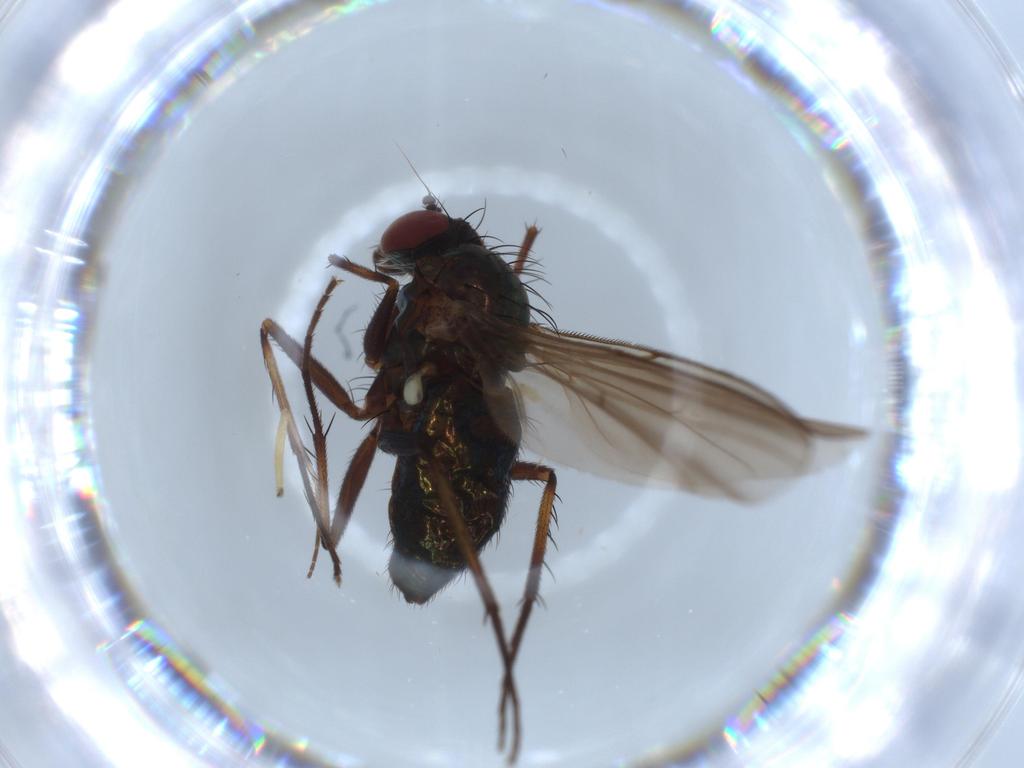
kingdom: Animalia
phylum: Arthropoda
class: Insecta
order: Diptera
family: Dolichopodidae
